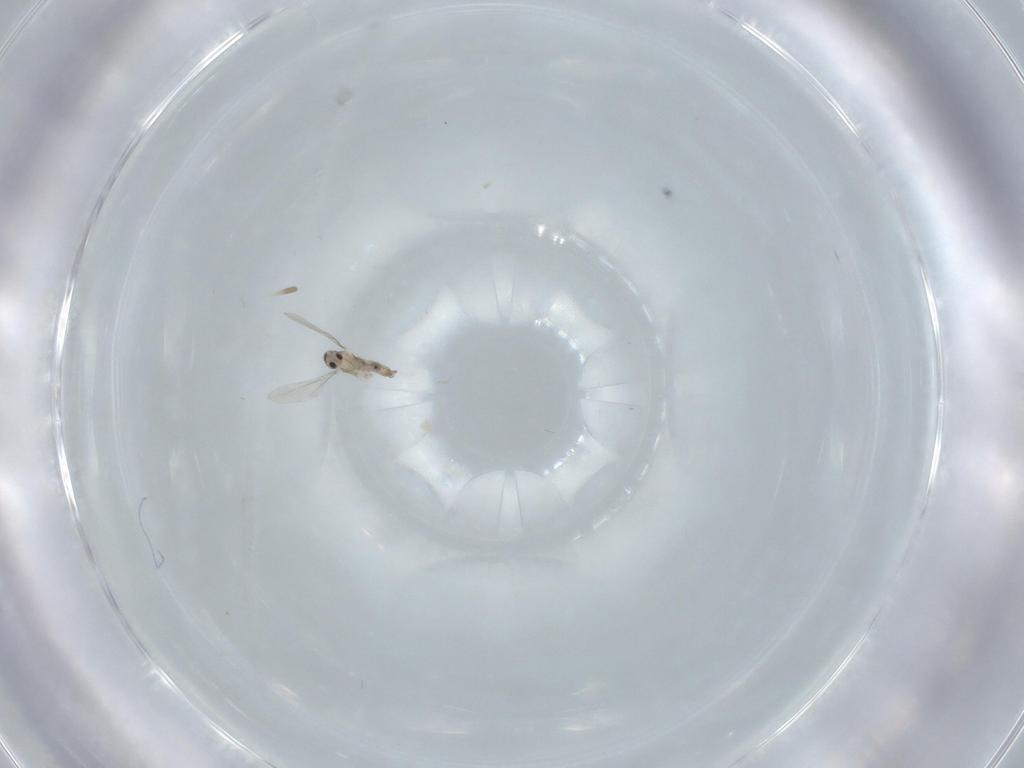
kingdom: Animalia
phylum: Arthropoda
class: Insecta
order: Diptera
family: Cecidomyiidae
